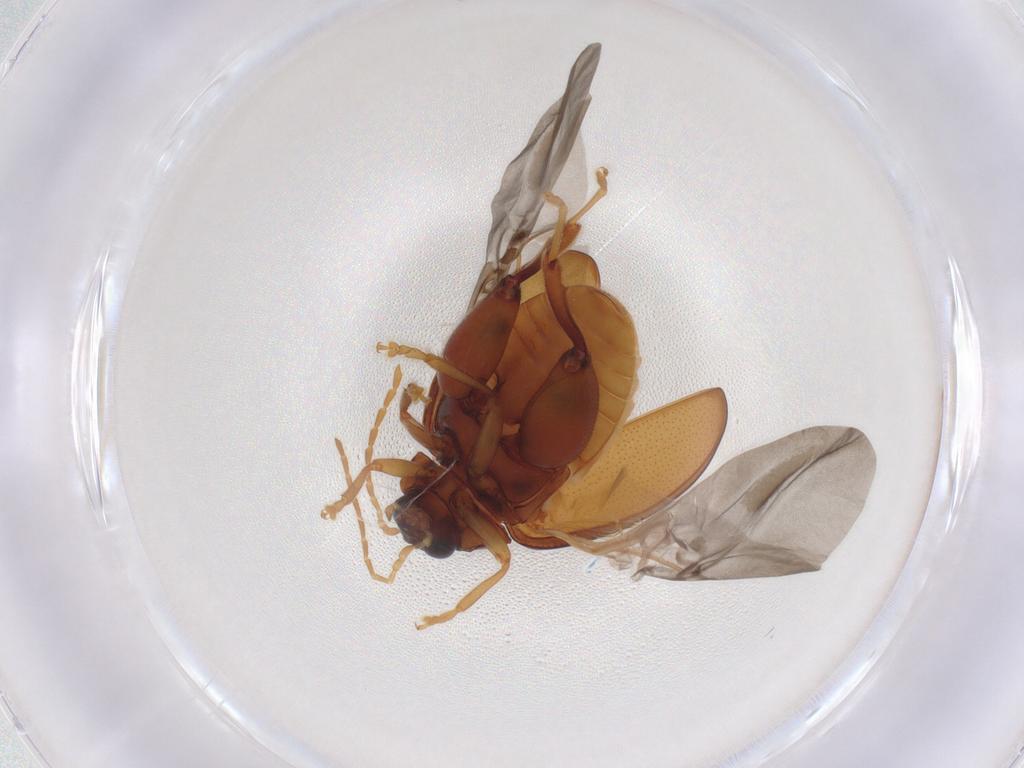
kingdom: Animalia
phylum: Arthropoda
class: Insecta
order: Coleoptera
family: Chrysomelidae
